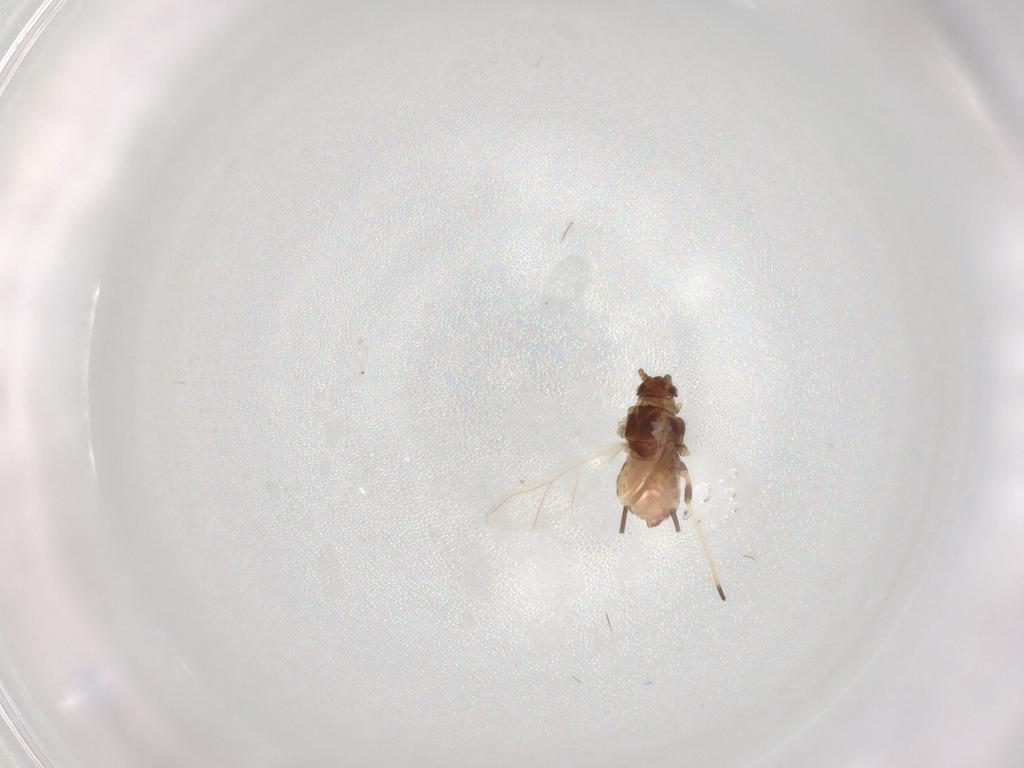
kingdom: Animalia
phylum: Arthropoda
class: Insecta
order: Hemiptera
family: Aphididae
